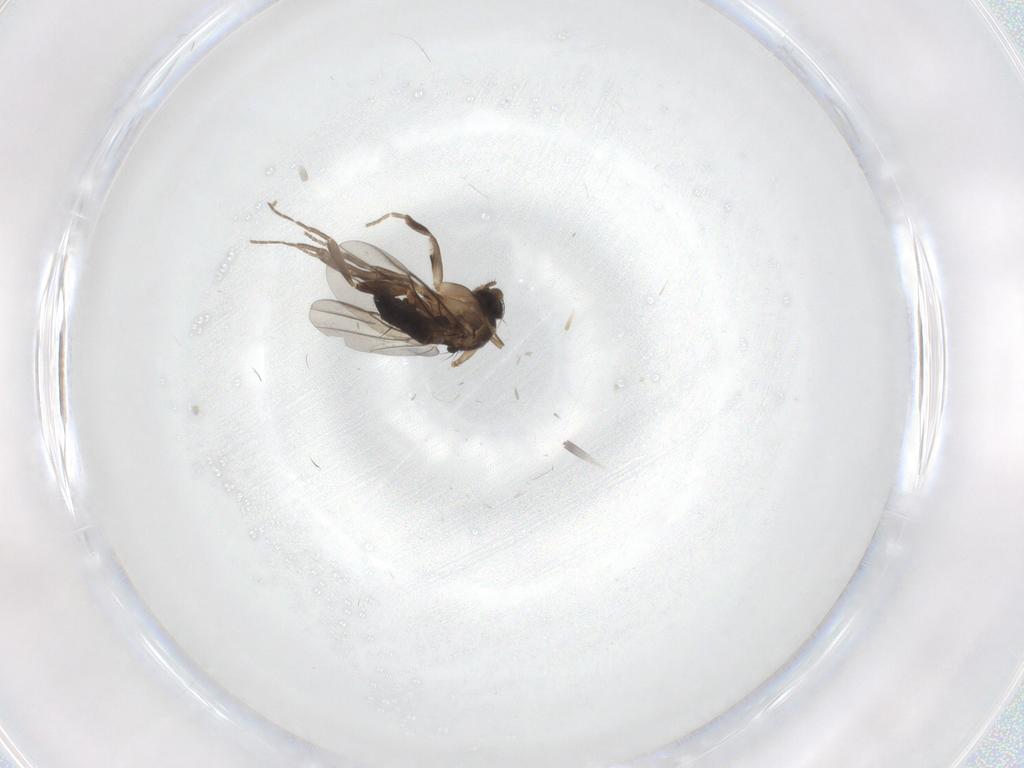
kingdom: Animalia
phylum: Arthropoda
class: Insecta
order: Diptera
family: Phoridae
